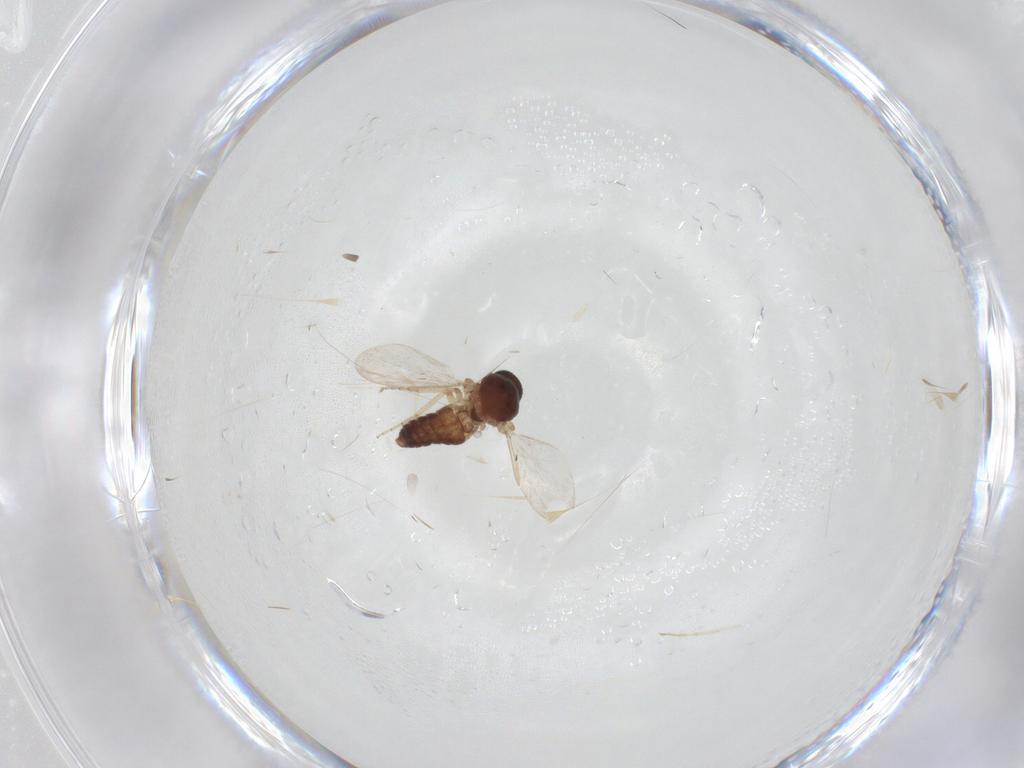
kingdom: Animalia
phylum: Arthropoda
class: Insecta
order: Diptera
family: Ceratopogonidae
